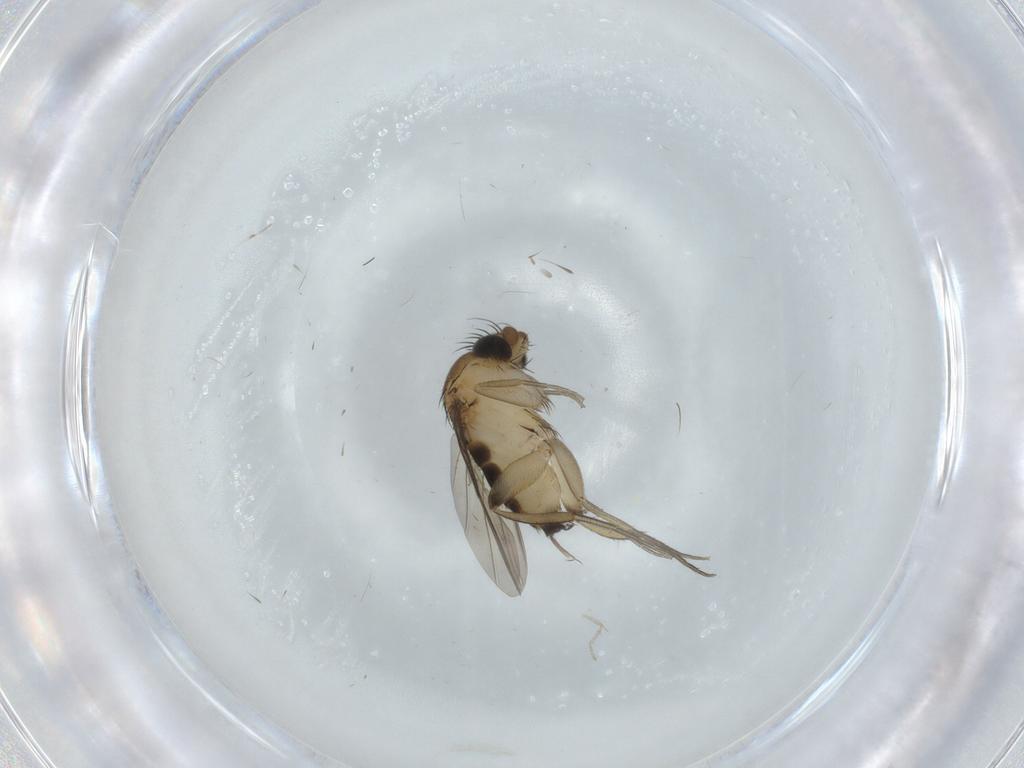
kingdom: Animalia
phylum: Arthropoda
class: Insecta
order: Diptera
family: Phoridae
